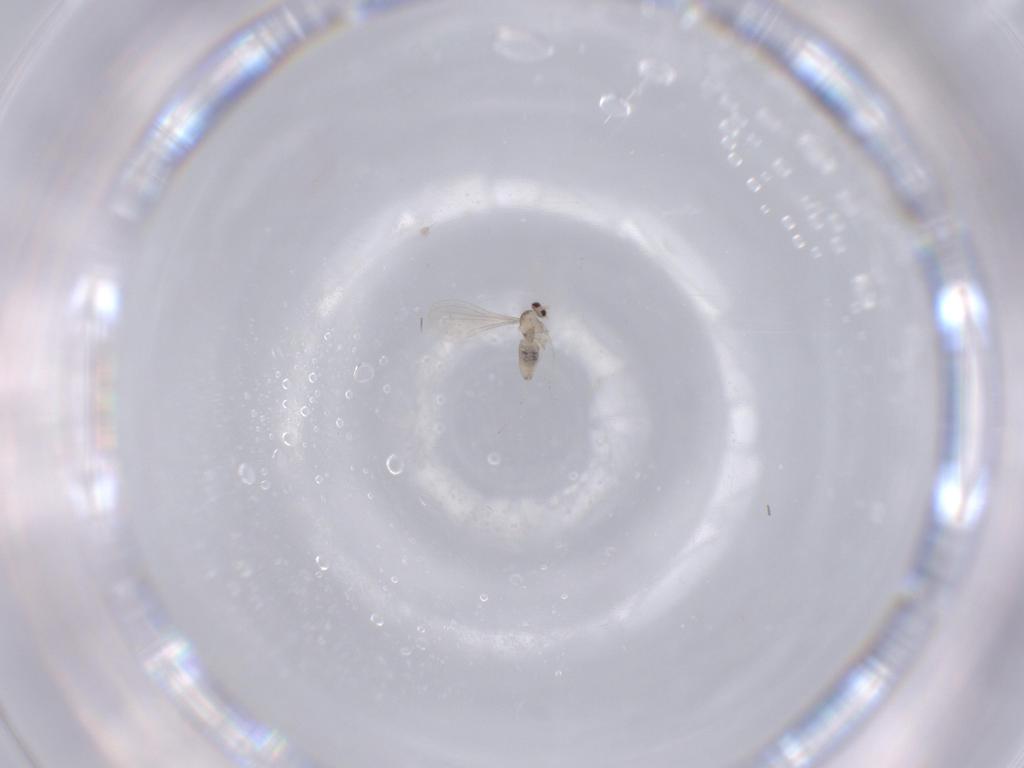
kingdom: Animalia
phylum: Arthropoda
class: Insecta
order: Diptera
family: Cecidomyiidae
